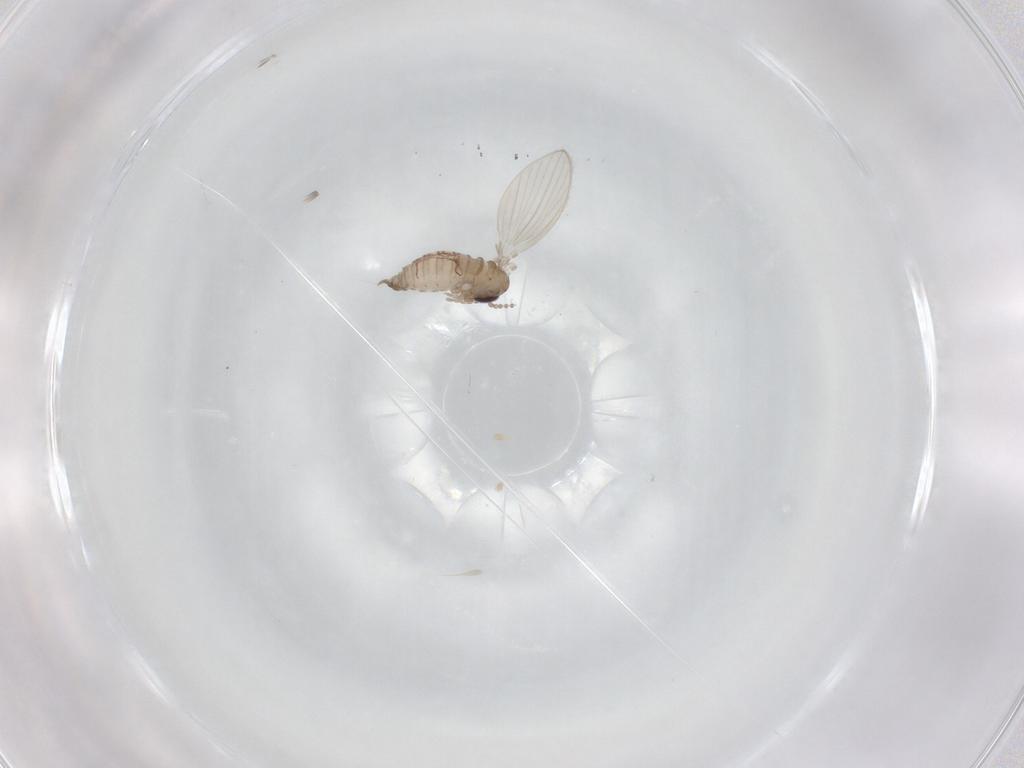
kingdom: Animalia
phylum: Arthropoda
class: Insecta
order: Diptera
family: Psychodidae
